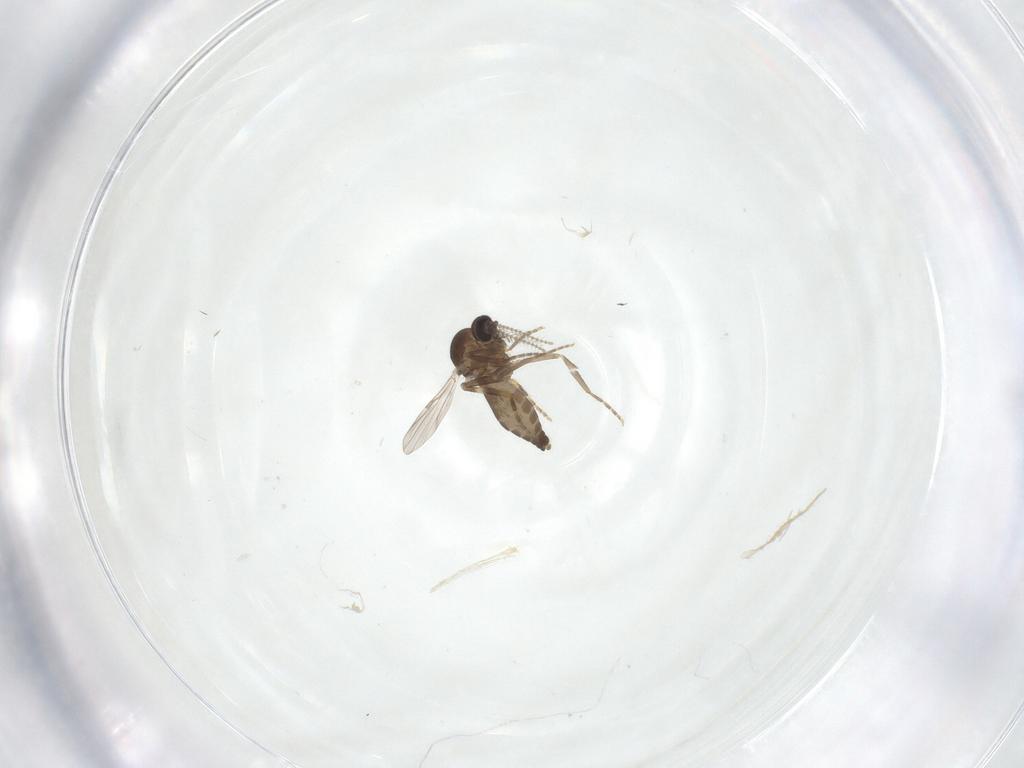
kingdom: Animalia
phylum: Arthropoda
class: Insecta
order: Diptera
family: Ceratopogonidae
